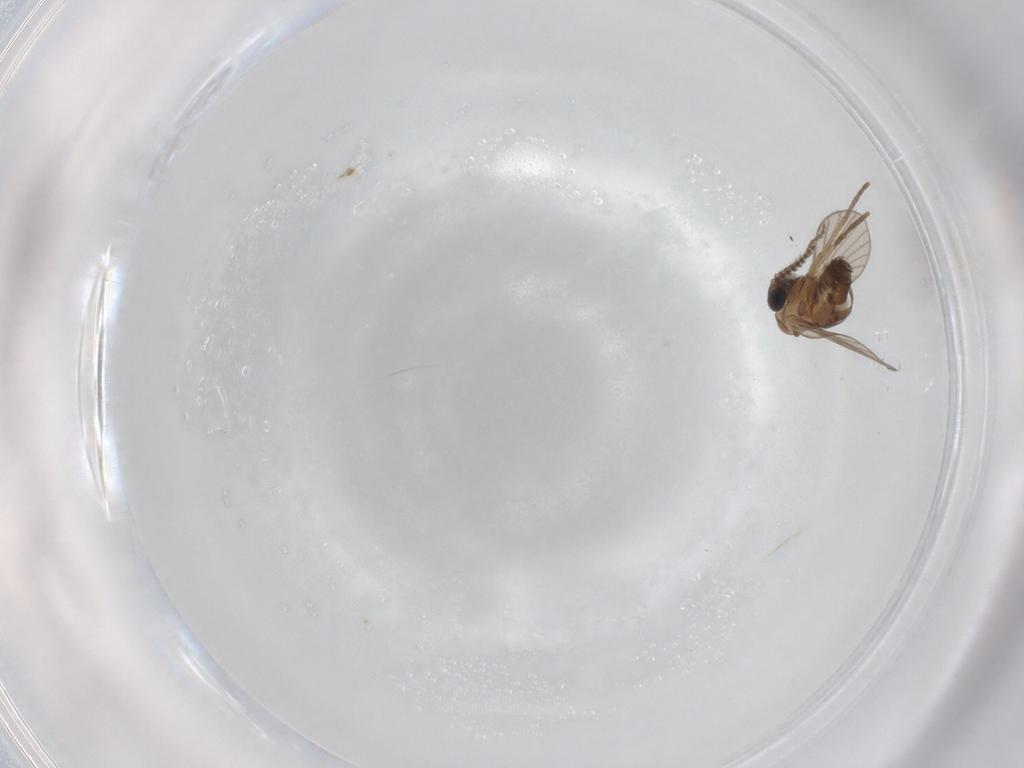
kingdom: Animalia
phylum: Arthropoda
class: Insecta
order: Diptera
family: Psychodidae
